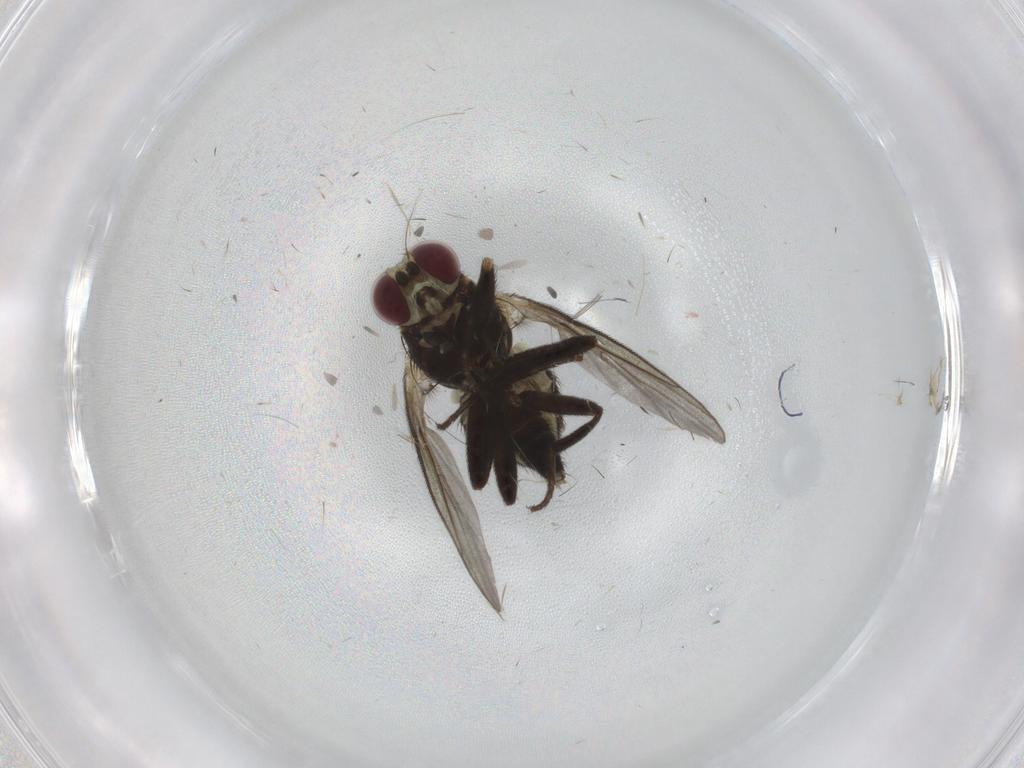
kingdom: Animalia
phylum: Arthropoda
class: Insecta
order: Diptera
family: Agromyzidae
